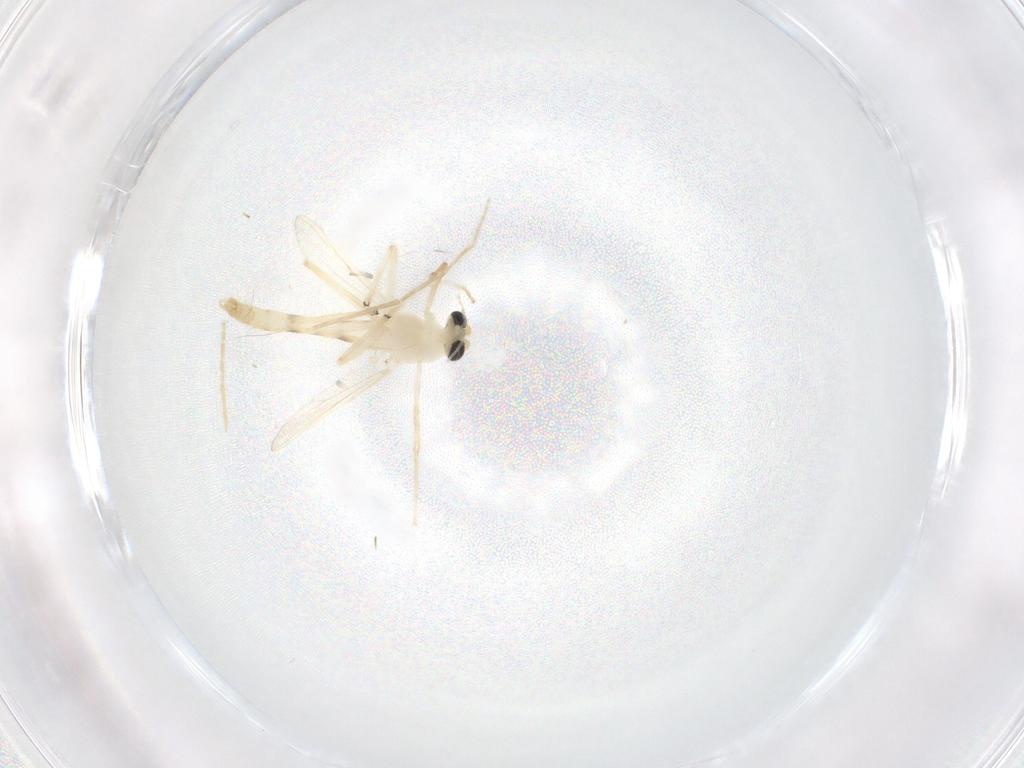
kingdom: Animalia
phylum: Arthropoda
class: Insecta
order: Diptera
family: Chironomidae
